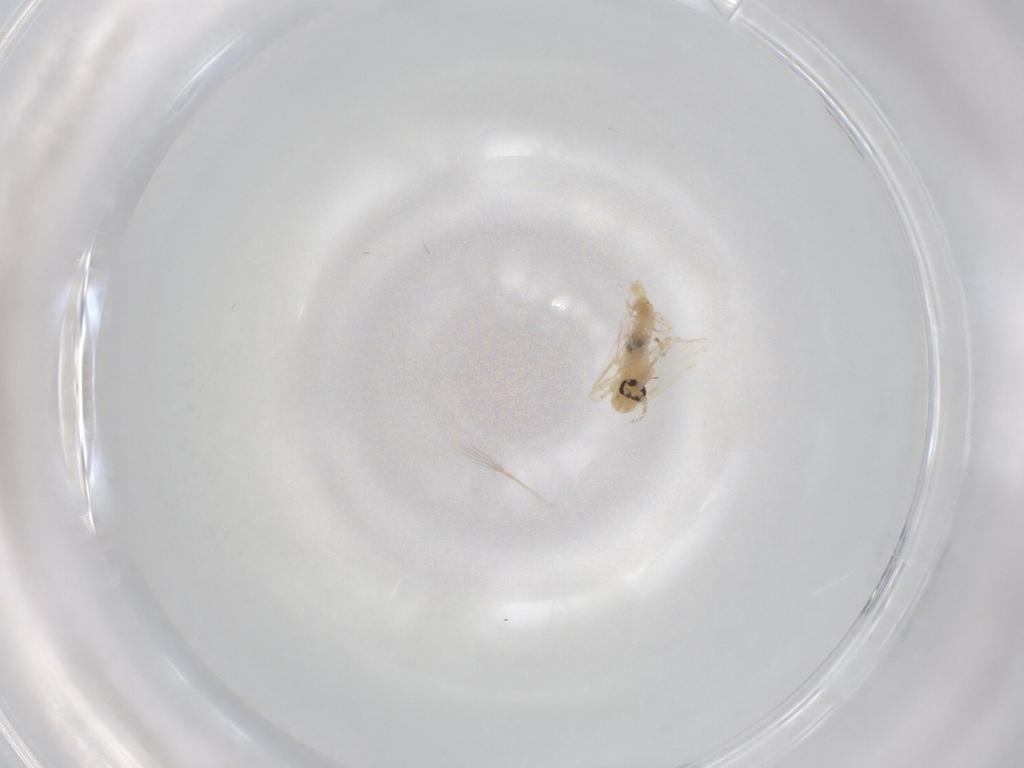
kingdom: Animalia
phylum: Arthropoda
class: Insecta
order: Diptera
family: Psychodidae
